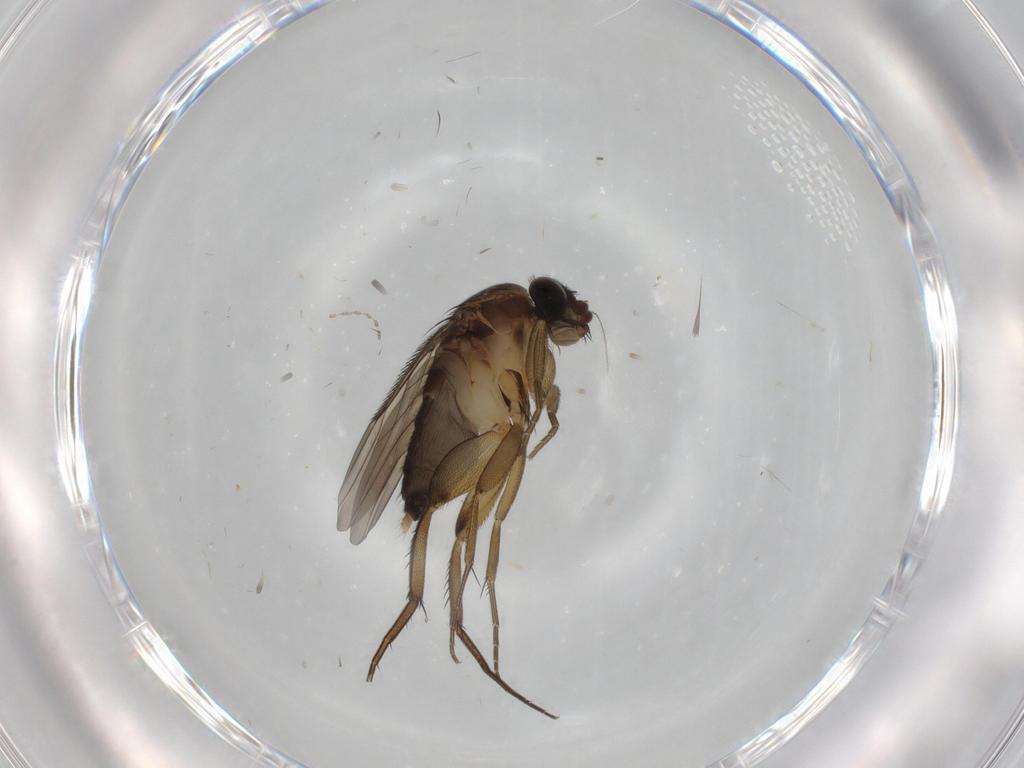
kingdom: Animalia
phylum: Arthropoda
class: Insecta
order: Diptera
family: Phoridae
